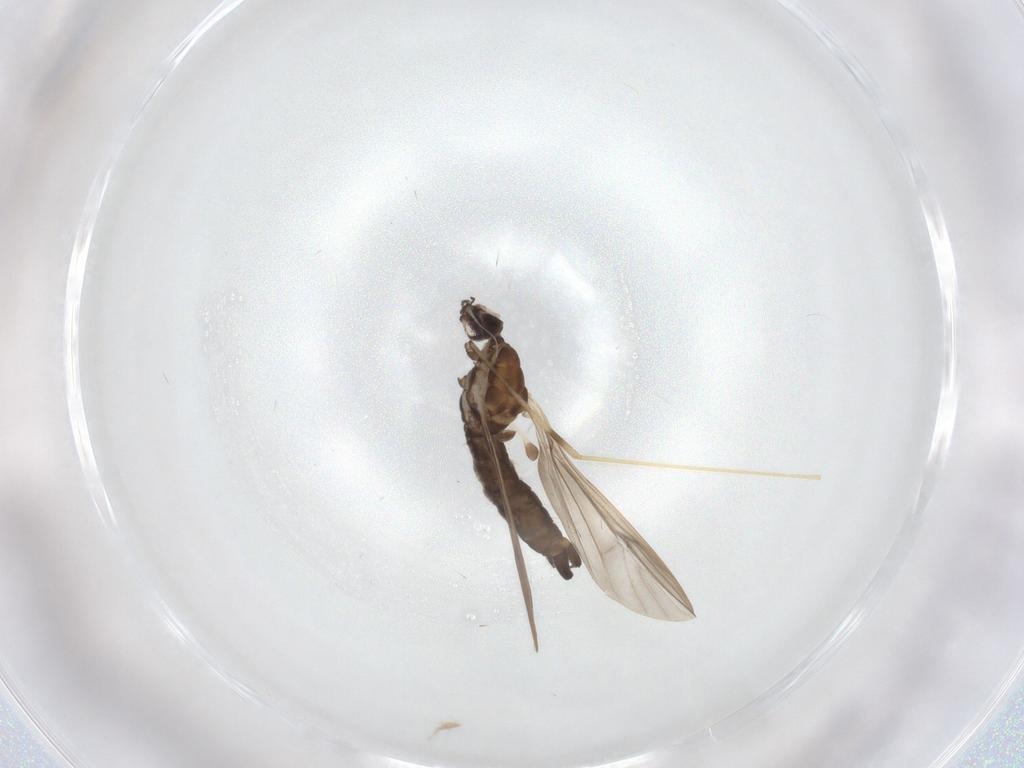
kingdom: Animalia
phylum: Arthropoda
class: Insecta
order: Diptera
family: Limoniidae
